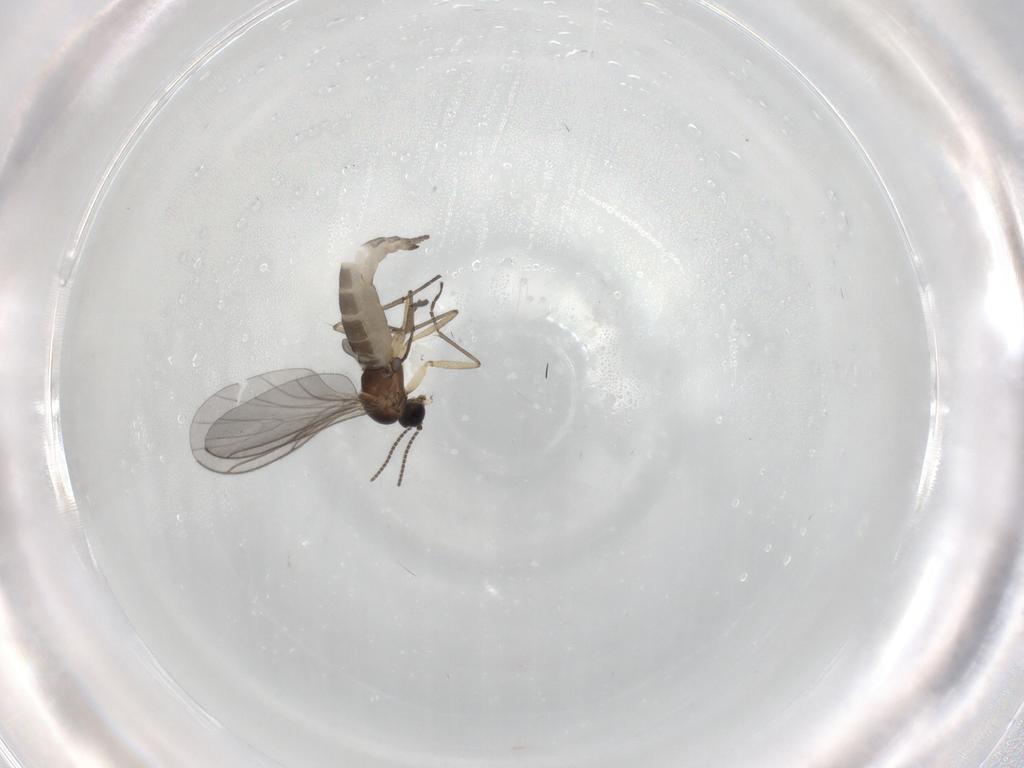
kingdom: Animalia
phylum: Arthropoda
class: Insecta
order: Diptera
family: Sciaridae
